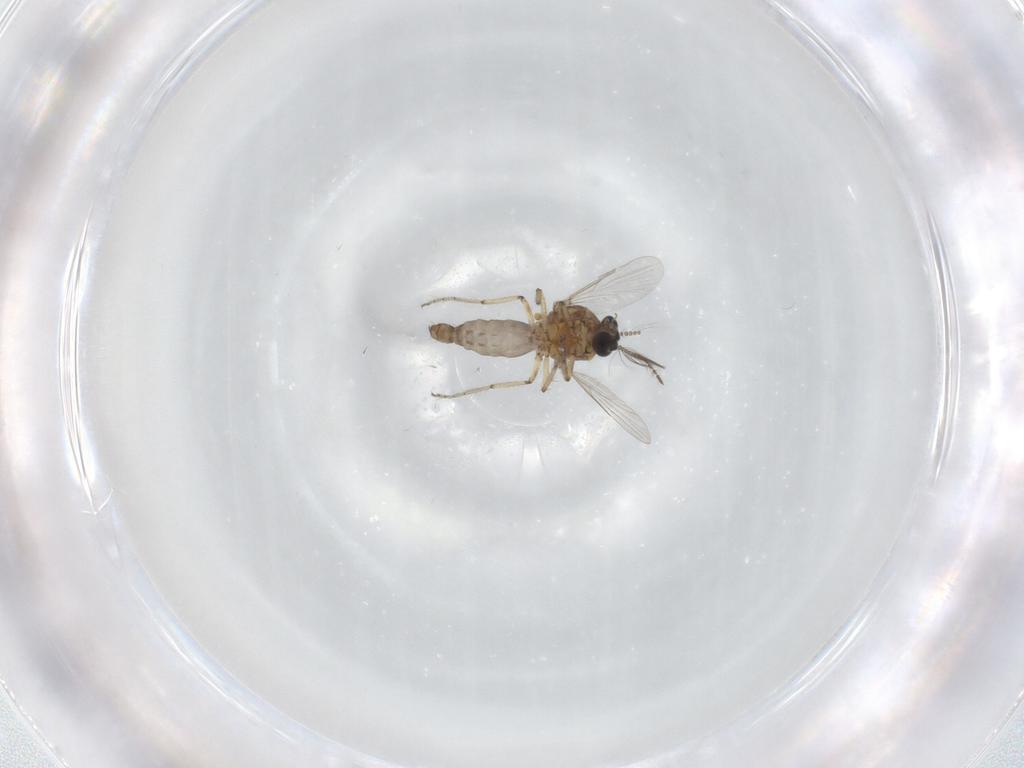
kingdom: Animalia
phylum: Arthropoda
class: Insecta
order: Diptera
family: Ceratopogonidae
